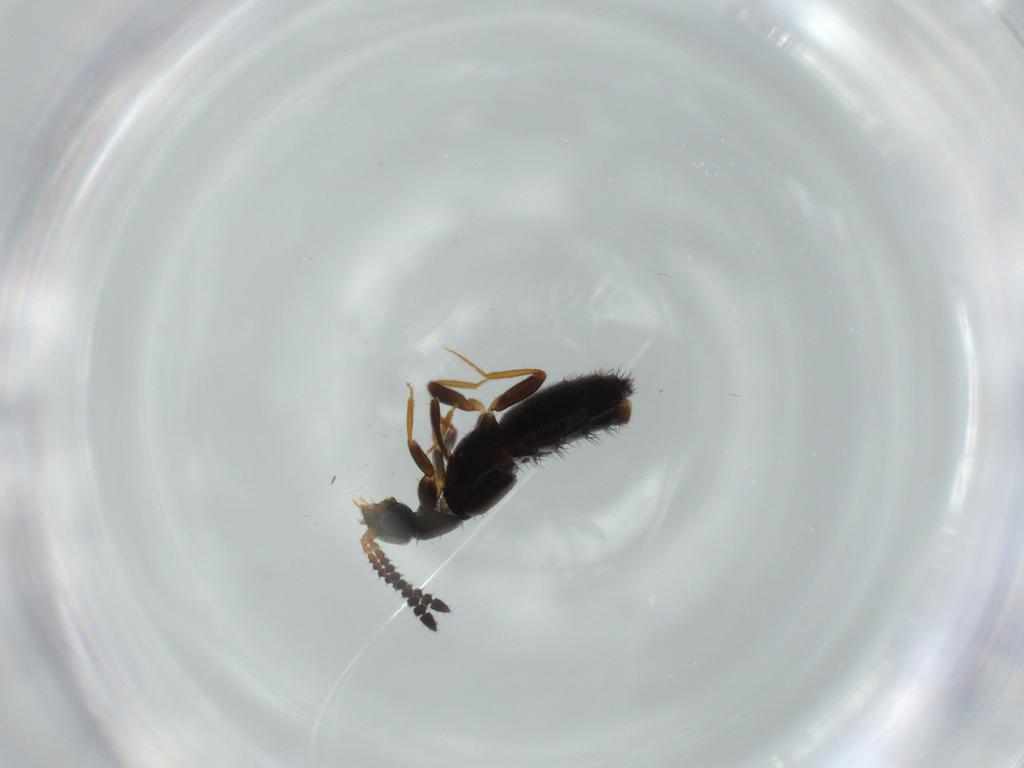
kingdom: Animalia
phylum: Arthropoda
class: Insecta
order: Coleoptera
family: Staphylinidae
